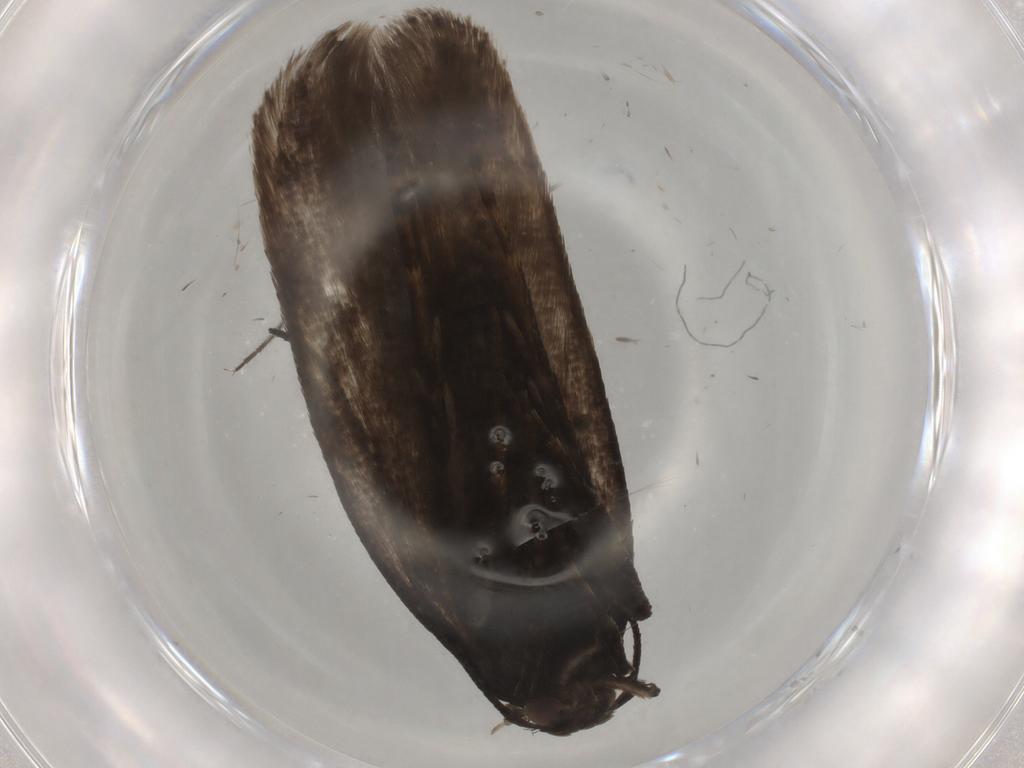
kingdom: Animalia
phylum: Arthropoda
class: Insecta
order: Lepidoptera
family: Gelechiidae
